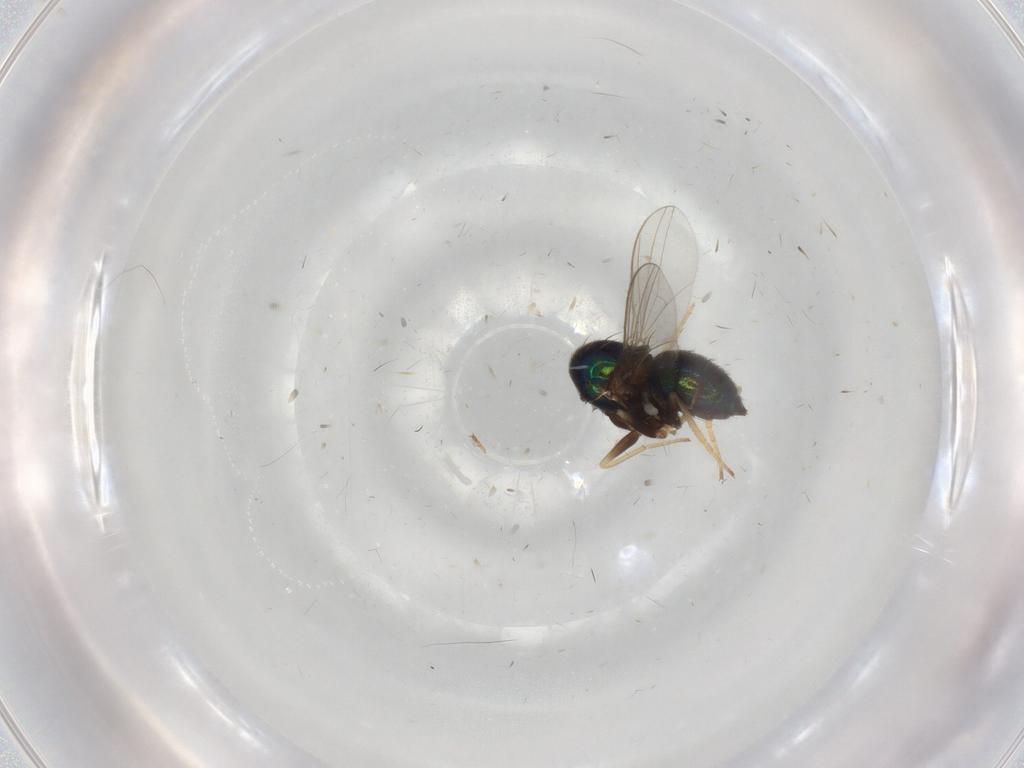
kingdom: Animalia
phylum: Arthropoda
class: Insecta
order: Diptera
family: Dolichopodidae
